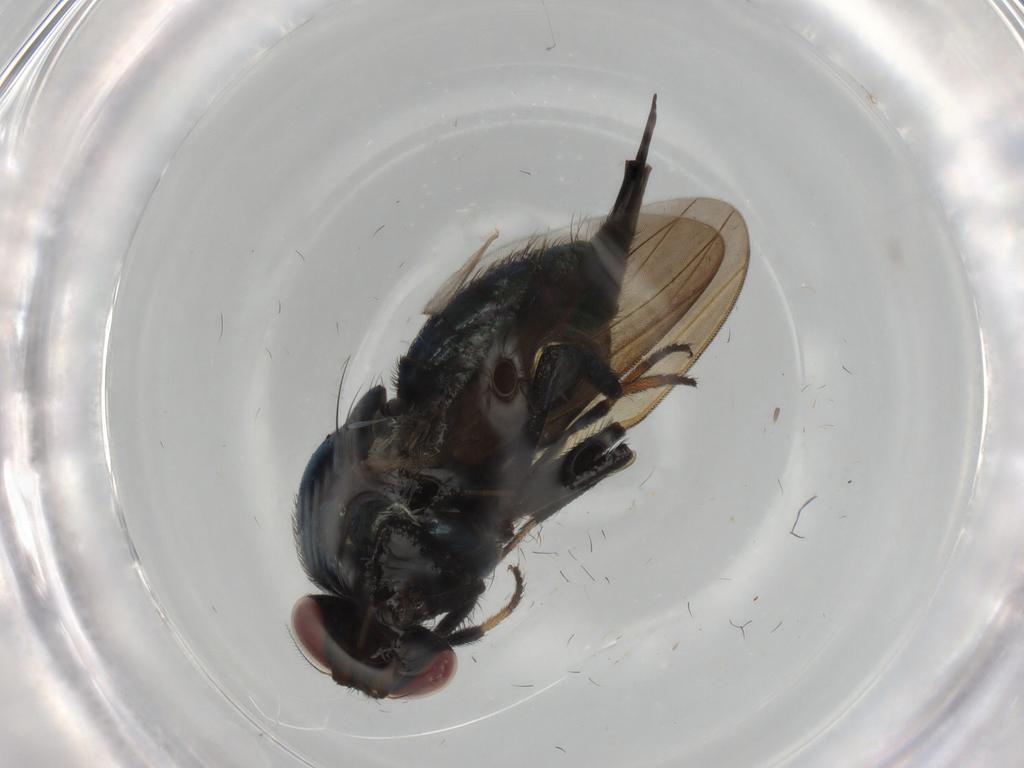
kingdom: Animalia
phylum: Arthropoda
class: Insecta
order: Diptera
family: Lonchaeidae
